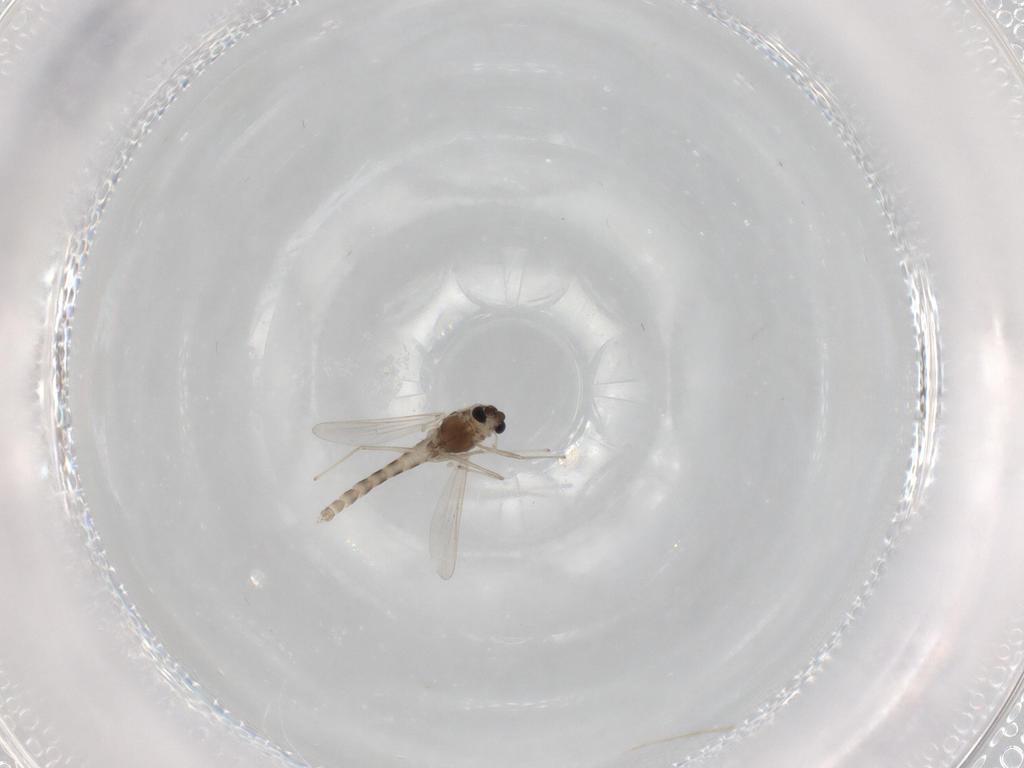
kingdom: Animalia
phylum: Arthropoda
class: Insecta
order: Diptera
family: Chironomidae
